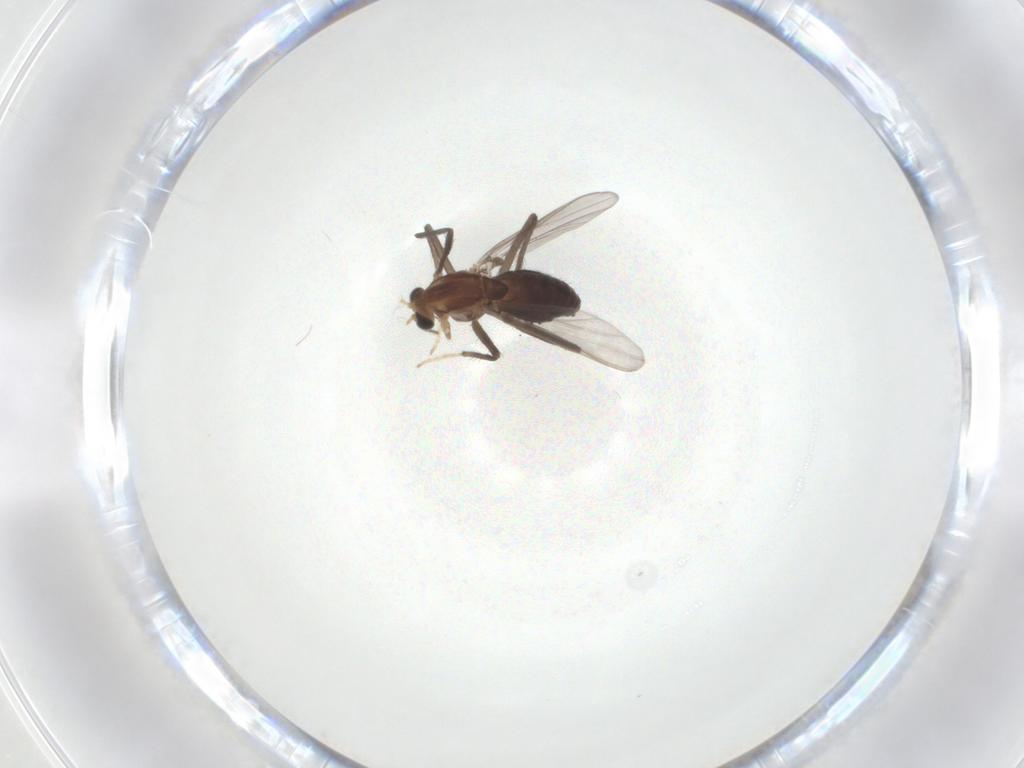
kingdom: Animalia
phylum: Arthropoda
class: Insecta
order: Diptera
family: Chironomidae
